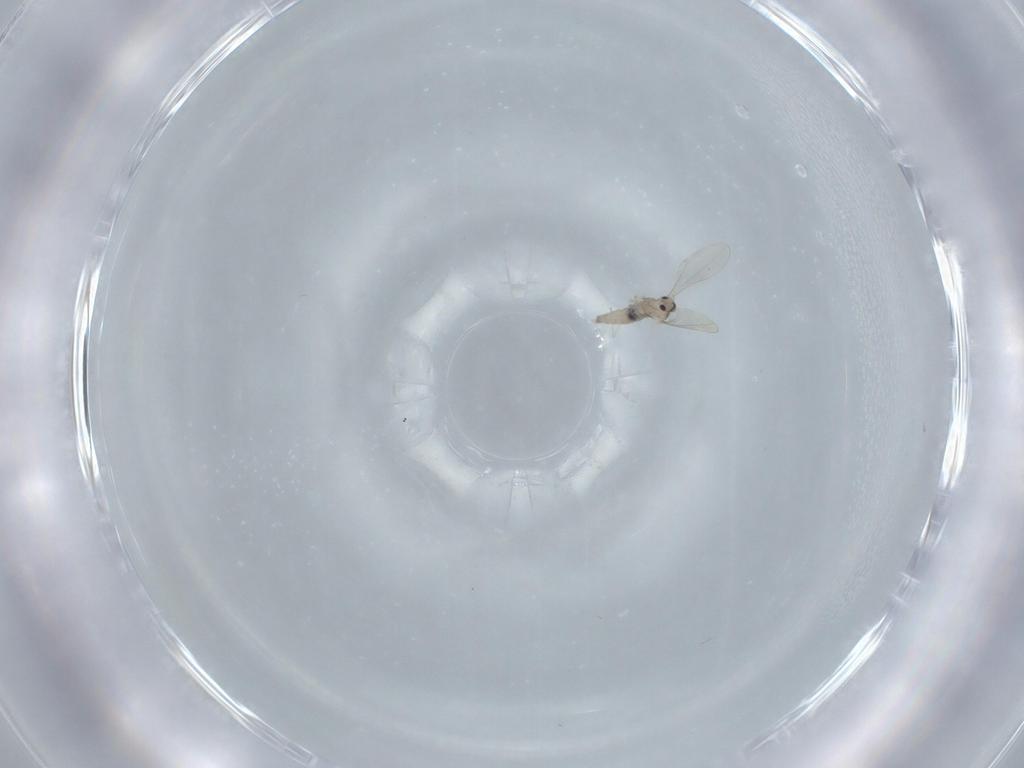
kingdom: Animalia
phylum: Arthropoda
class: Insecta
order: Diptera
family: Cecidomyiidae
